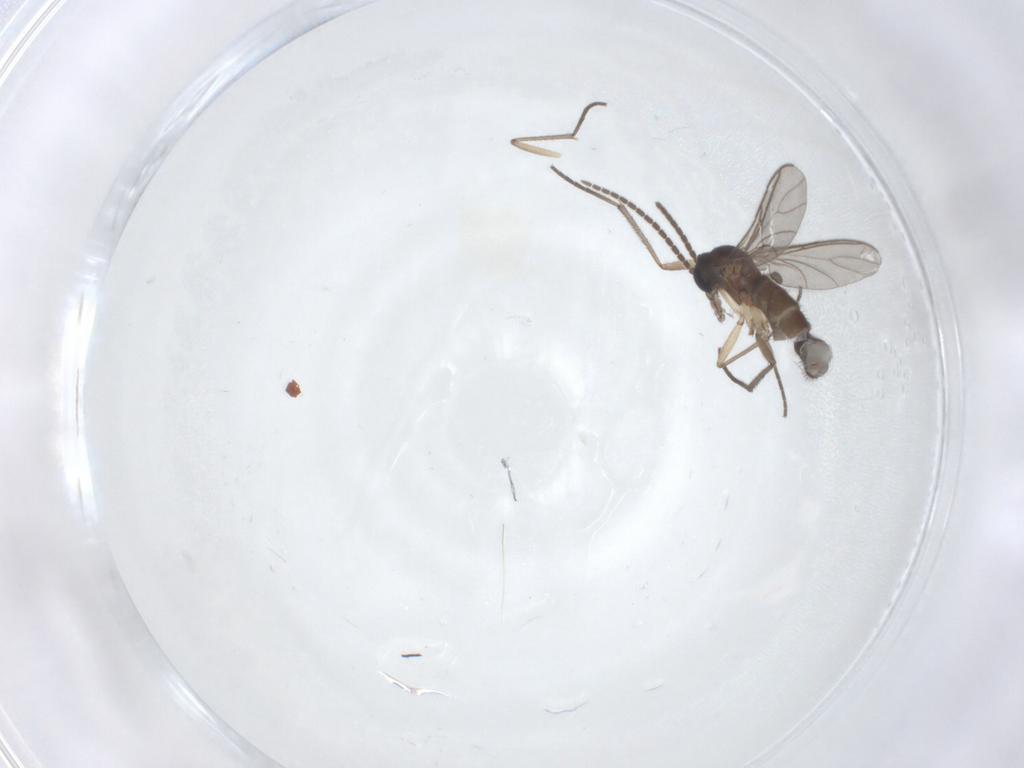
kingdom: Animalia
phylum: Arthropoda
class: Insecta
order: Diptera
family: Sciaridae
